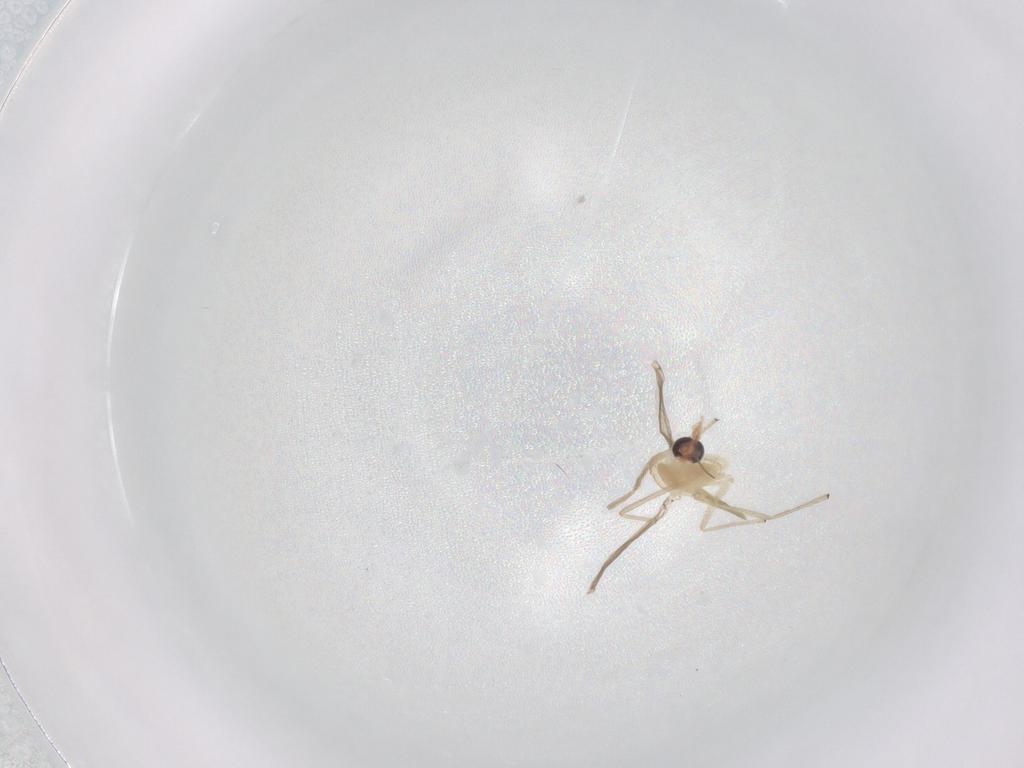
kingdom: Animalia
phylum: Arthropoda
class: Insecta
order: Diptera
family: Chironomidae
